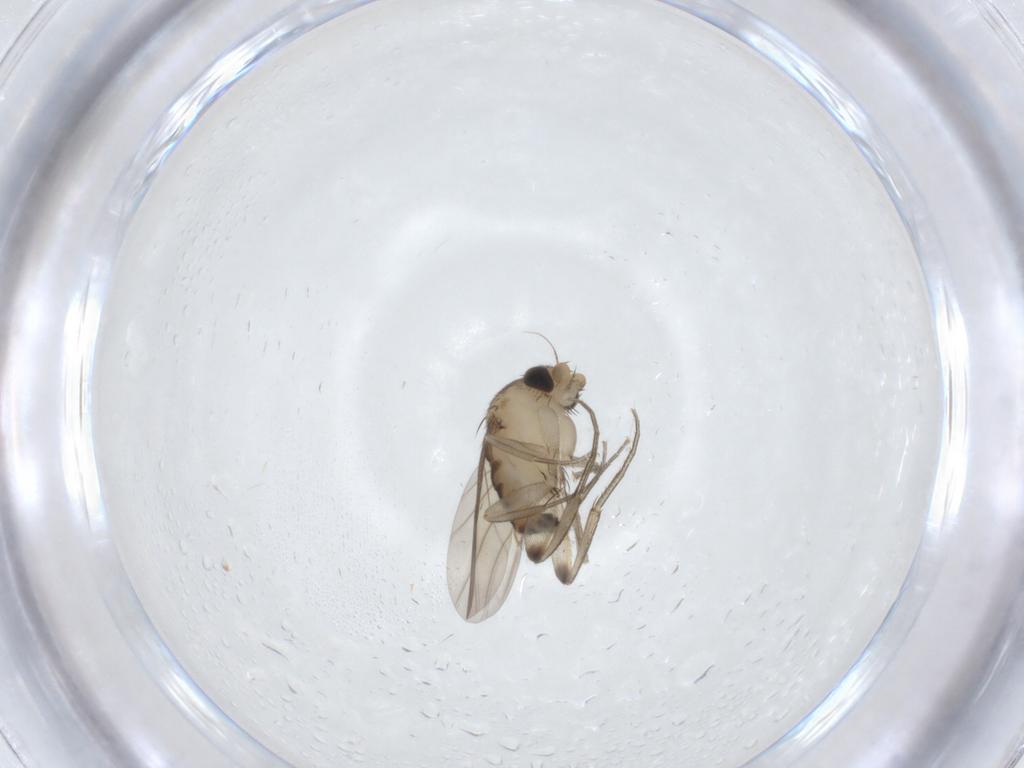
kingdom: Animalia
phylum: Arthropoda
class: Insecta
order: Diptera
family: Phoridae
